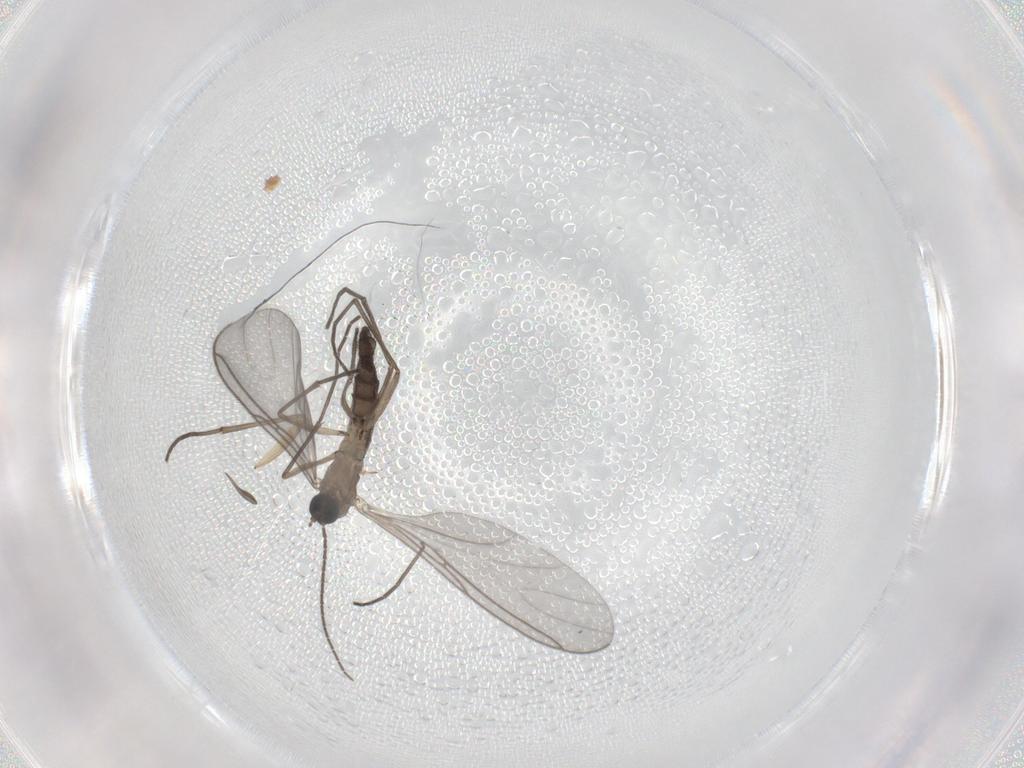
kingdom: Animalia
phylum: Arthropoda
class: Insecta
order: Diptera
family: Sciaridae
